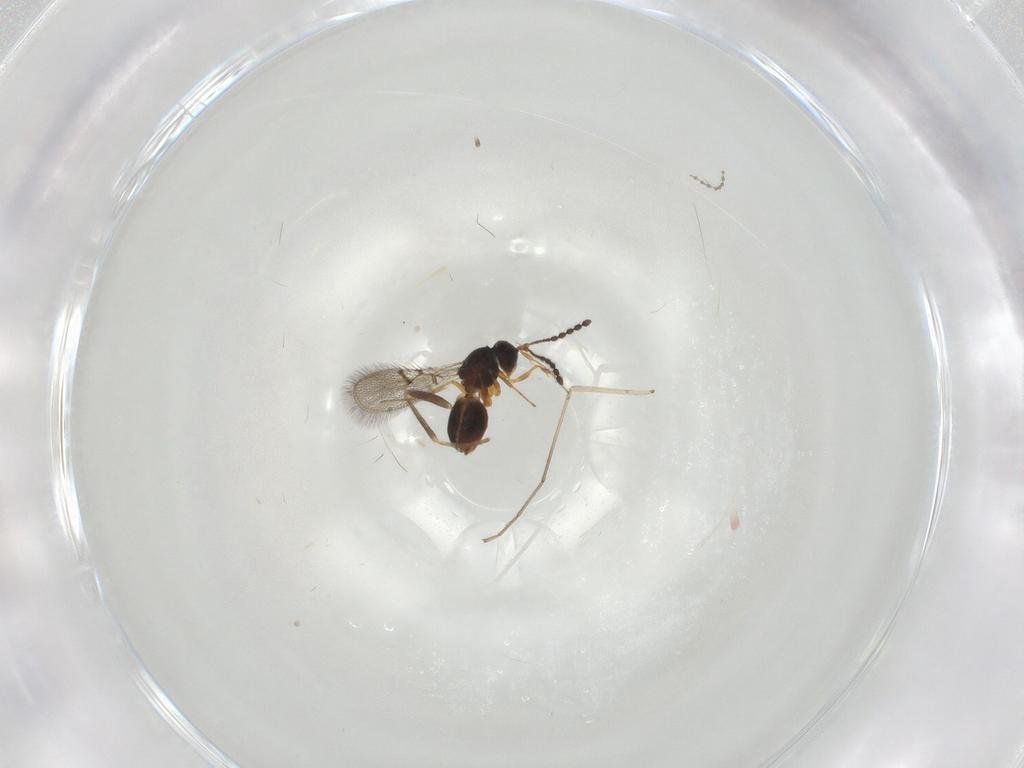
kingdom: Animalia
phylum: Arthropoda
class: Insecta
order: Hymenoptera
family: Figitidae
